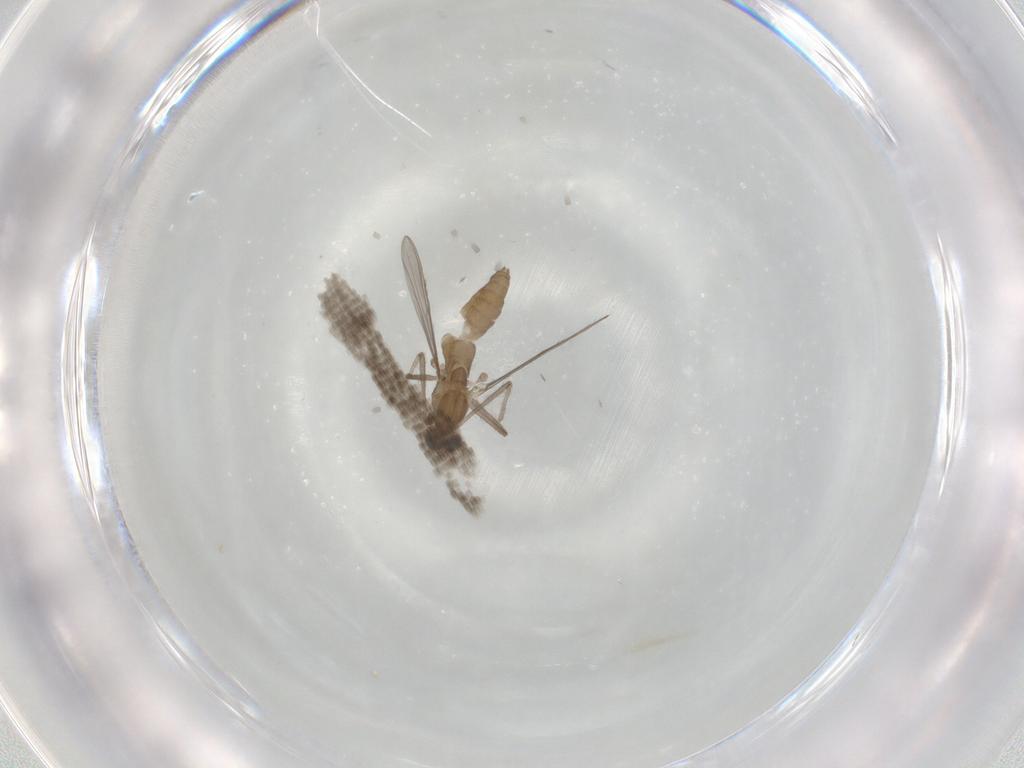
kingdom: Animalia
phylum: Arthropoda
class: Insecta
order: Diptera
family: Chironomidae
